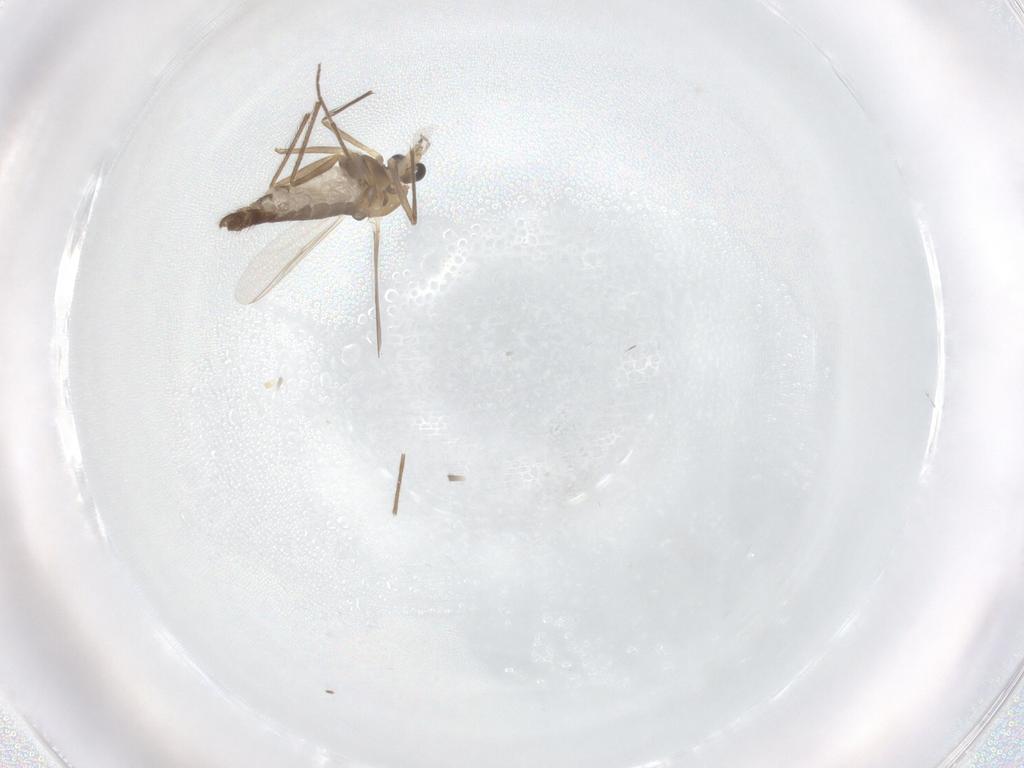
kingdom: Animalia
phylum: Arthropoda
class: Insecta
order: Diptera
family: Chironomidae
